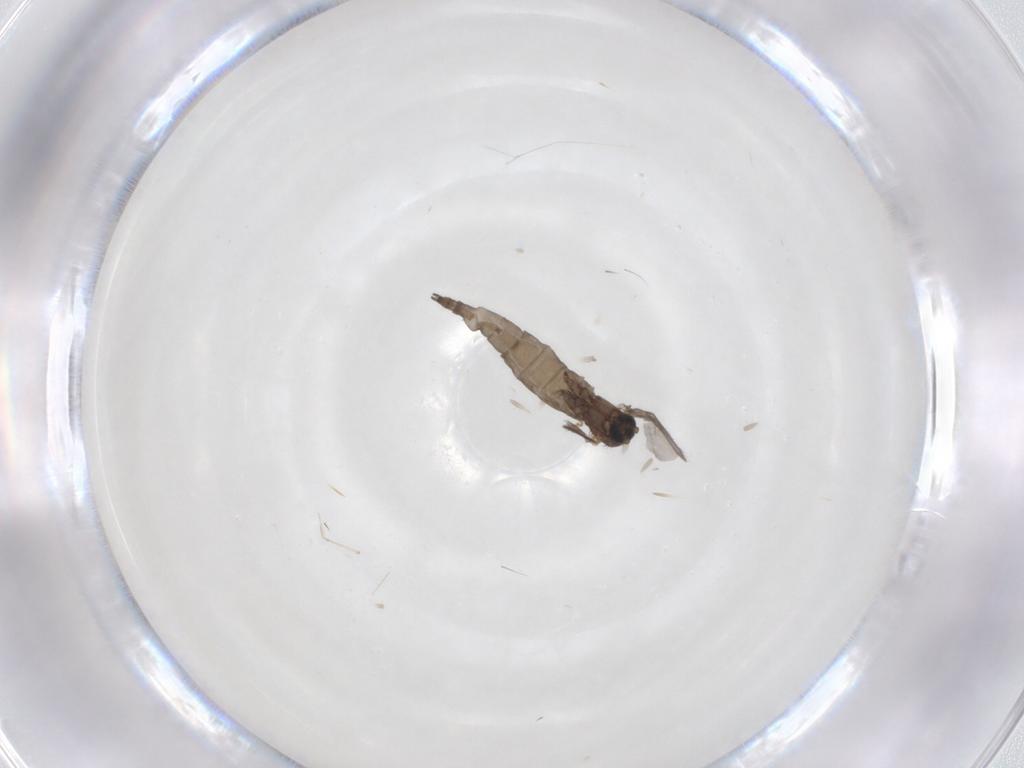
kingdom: Animalia
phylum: Arthropoda
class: Insecta
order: Diptera
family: Sciaridae
